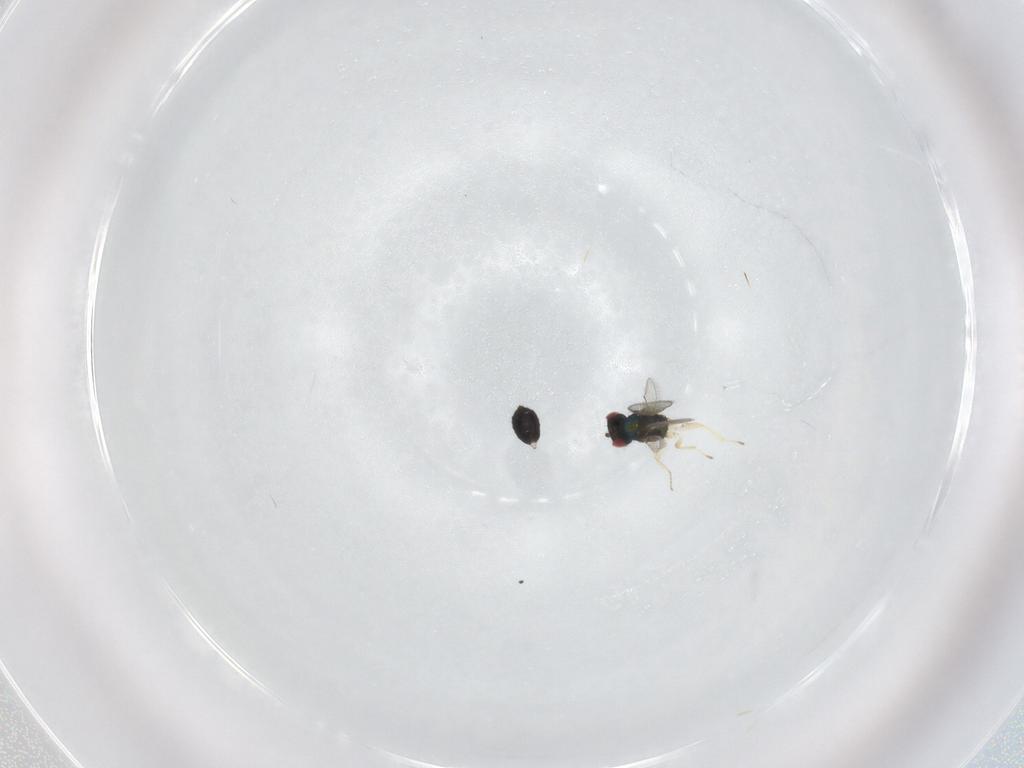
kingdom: Animalia
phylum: Arthropoda
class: Insecta
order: Hymenoptera
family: Eulophidae
